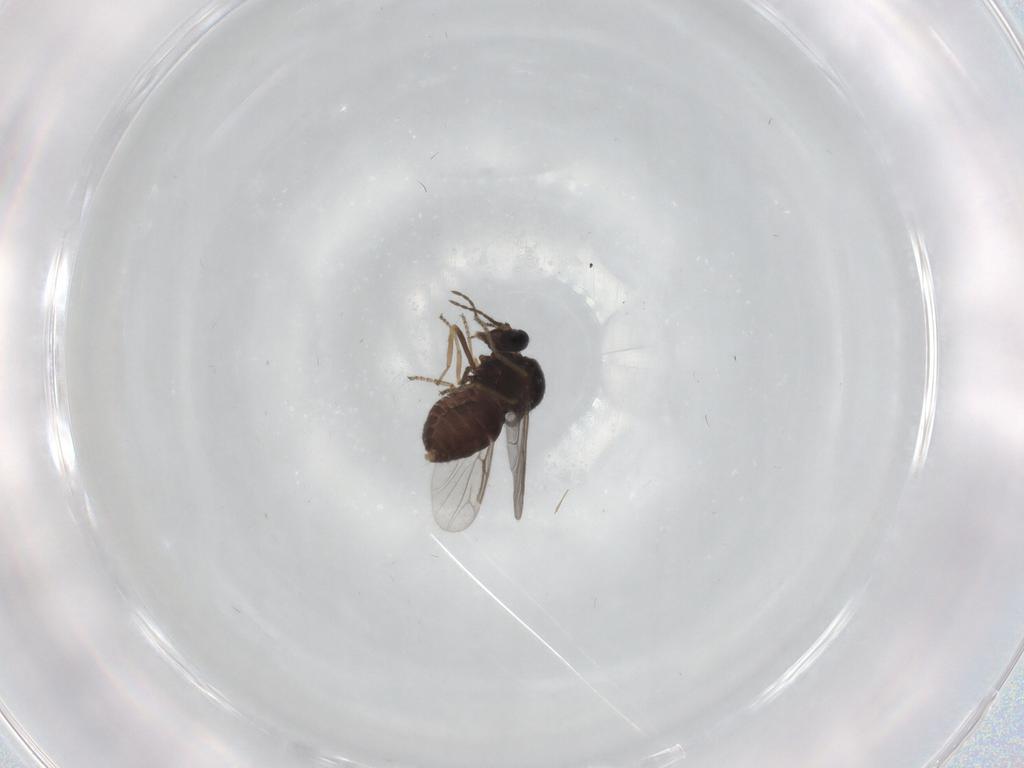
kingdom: Animalia
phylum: Arthropoda
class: Insecta
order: Diptera
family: Ceratopogonidae
